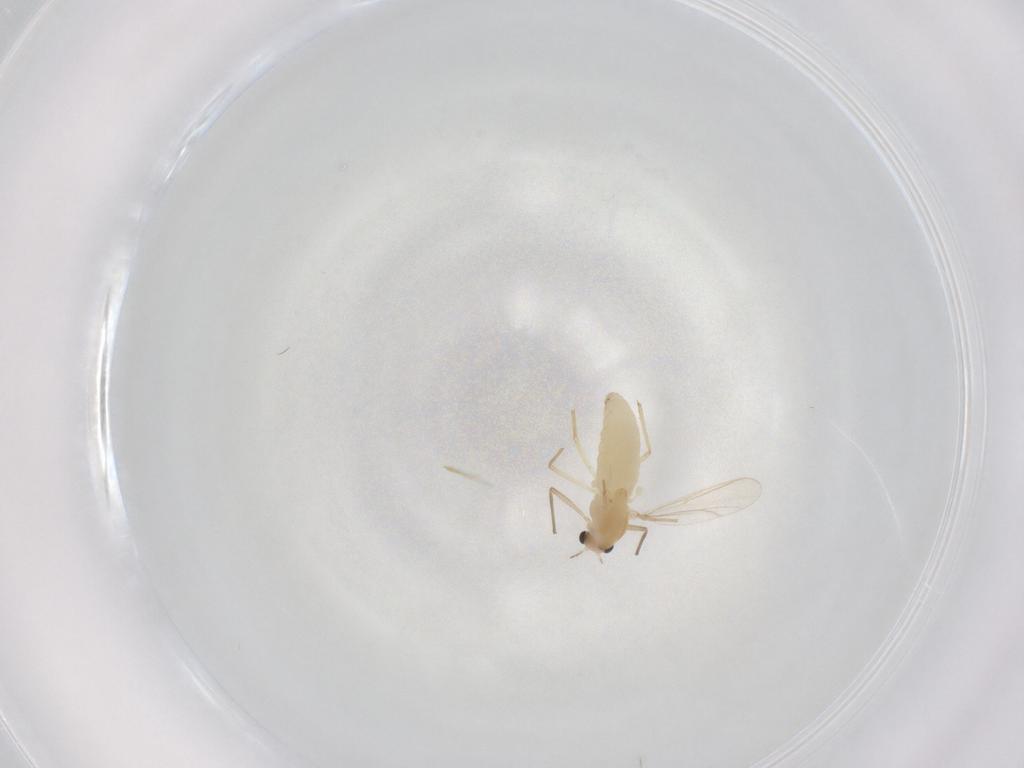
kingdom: Animalia
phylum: Arthropoda
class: Insecta
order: Diptera
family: Chironomidae
